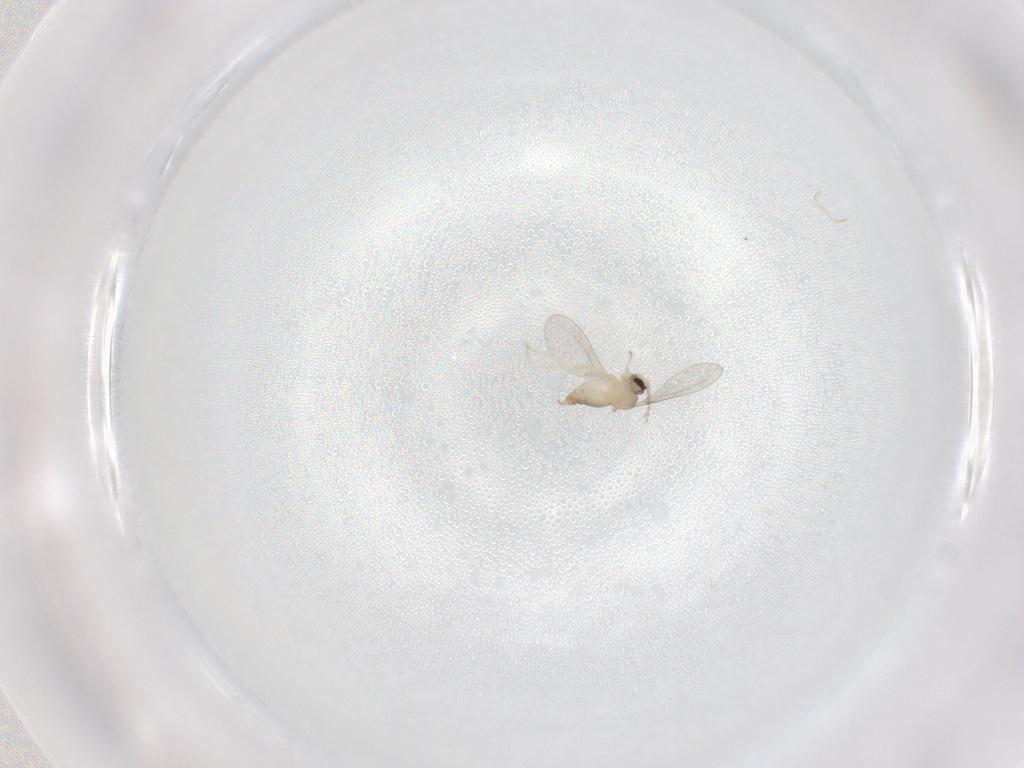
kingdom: Animalia
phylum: Arthropoda
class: Insecta
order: Diptera
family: Cecidomyiidae
